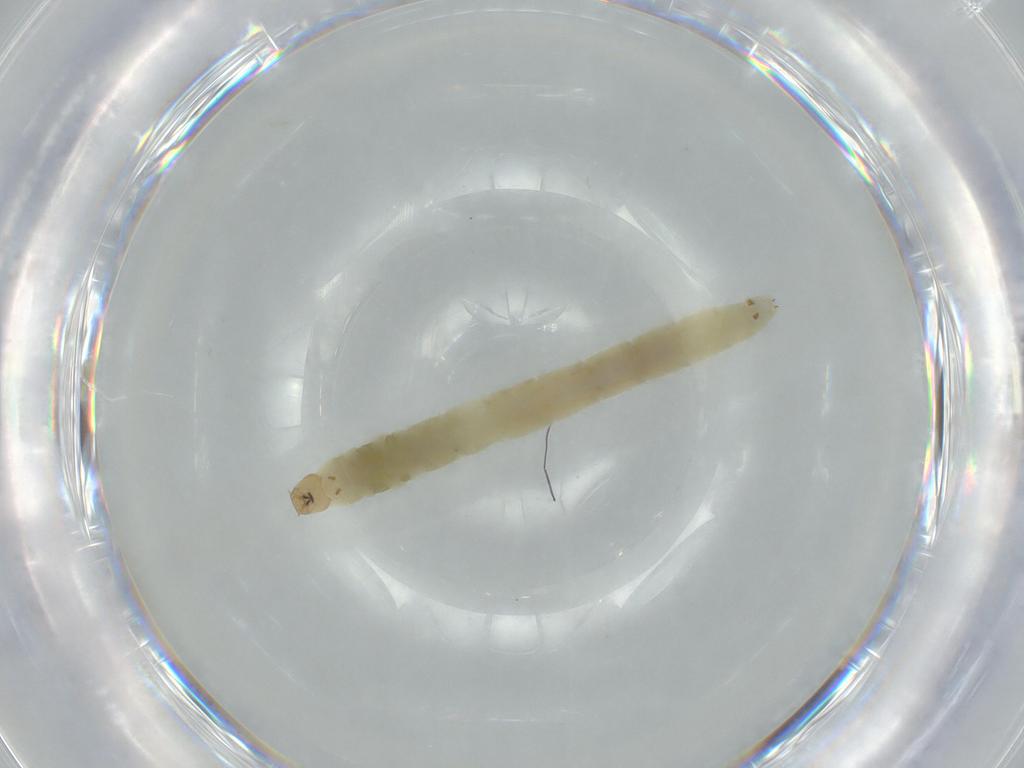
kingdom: Animalia
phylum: Arthropoda
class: Insecta
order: Diptera
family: Chironomidae
